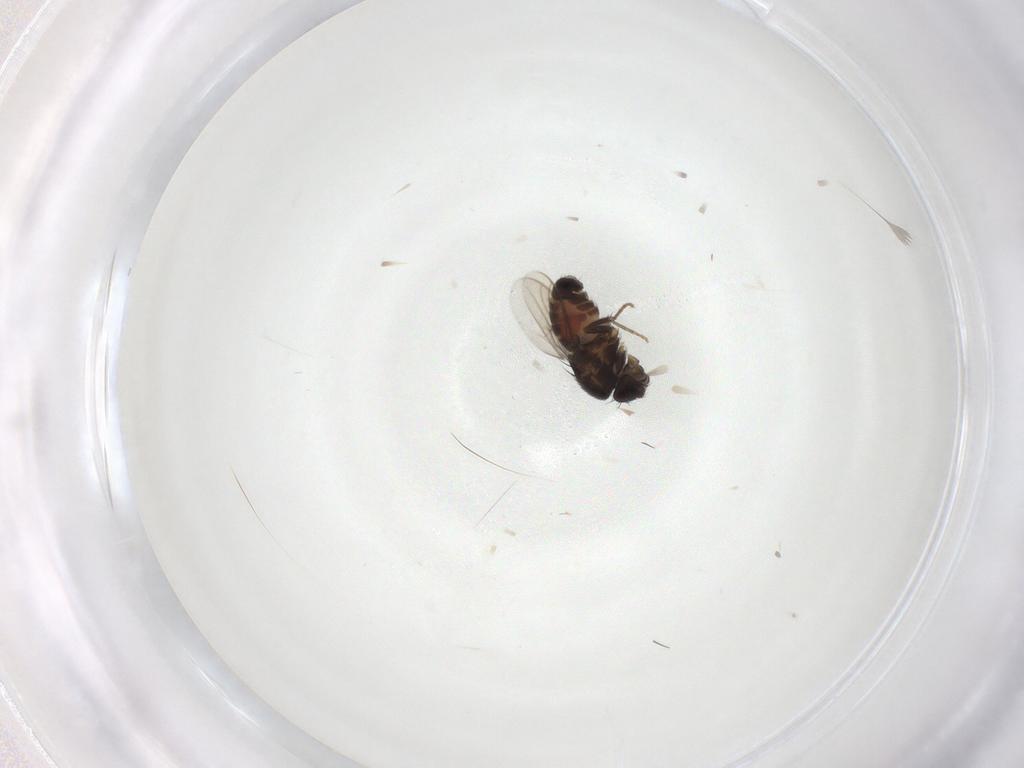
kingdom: Animalia
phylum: Arthropoda
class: Insecta
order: Diptera
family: Sphaeroceridae
